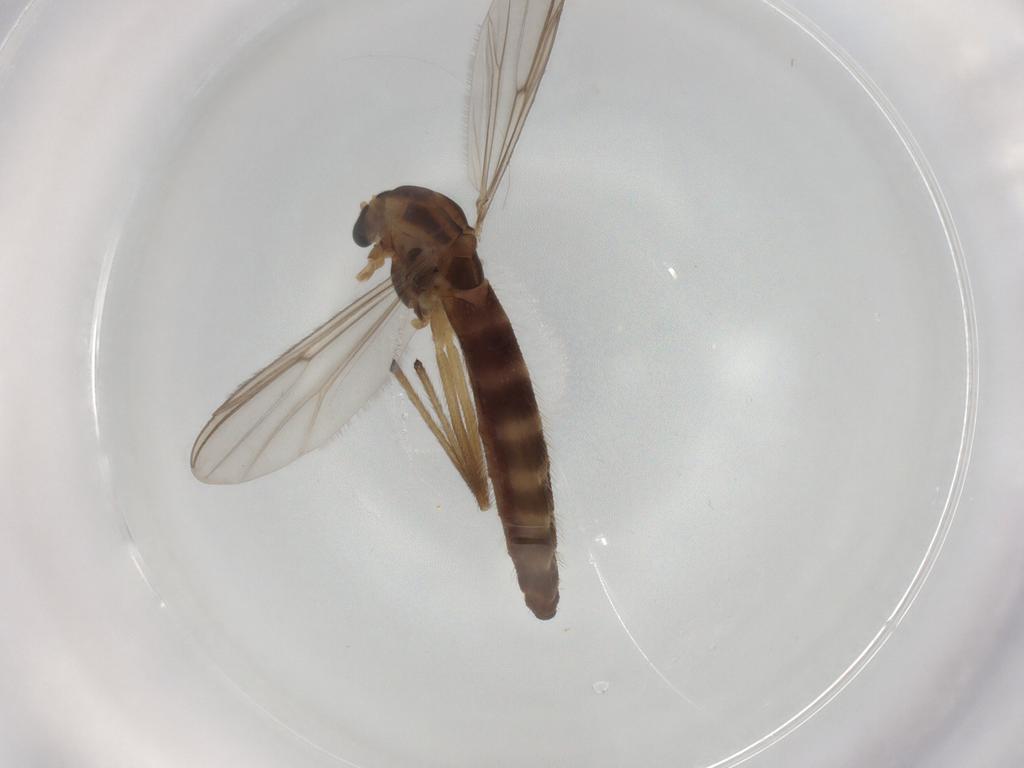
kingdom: Animalia
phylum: Arthropoda
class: Insecta
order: Diptera
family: Chironomidae
